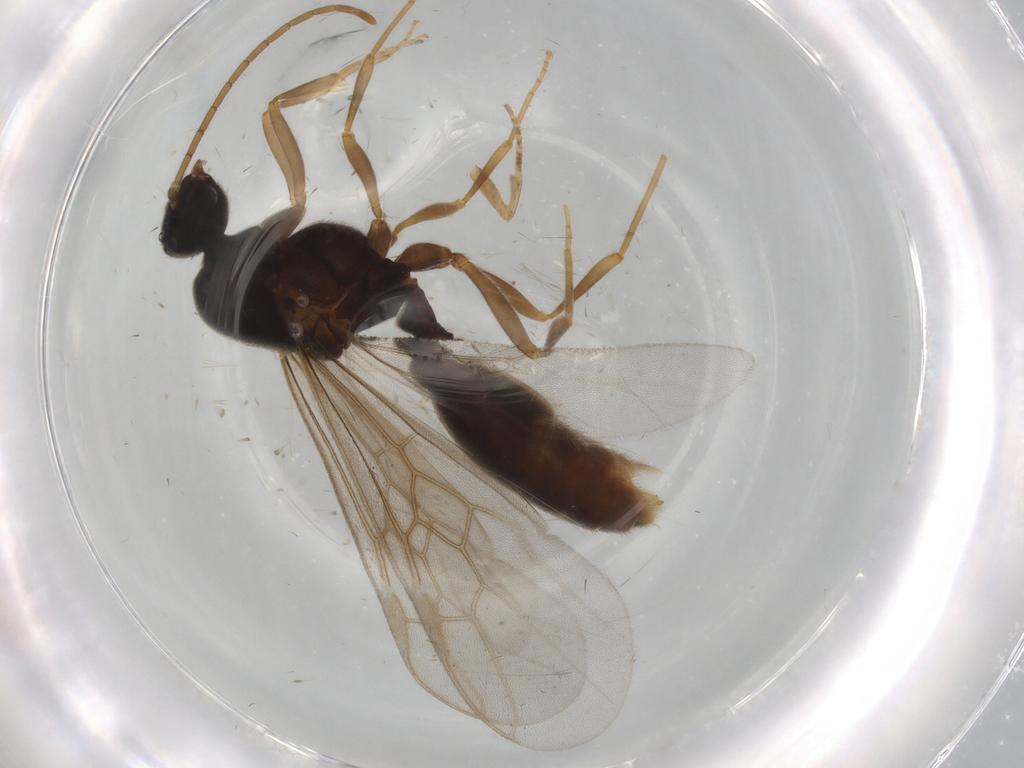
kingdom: Animalia
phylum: Arthropoda
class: Insecta
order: Hymenoptera
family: Formicidae
